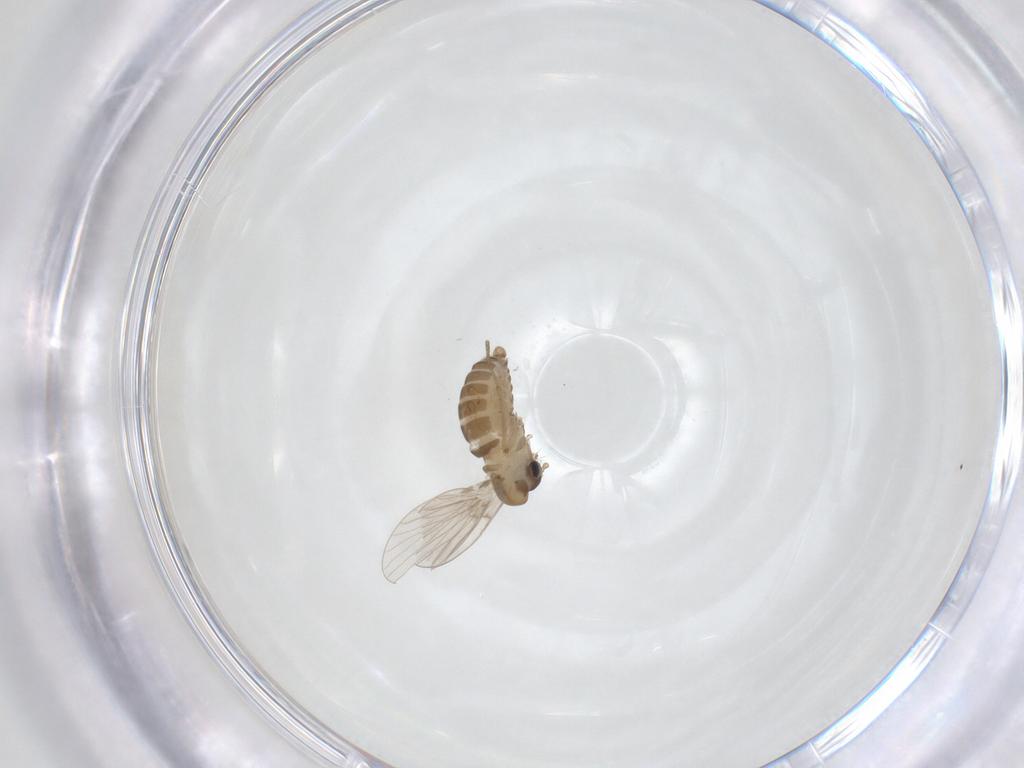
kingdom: Animalia
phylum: Arthropoda
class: Insecta
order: Diptera
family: Psychodidae
